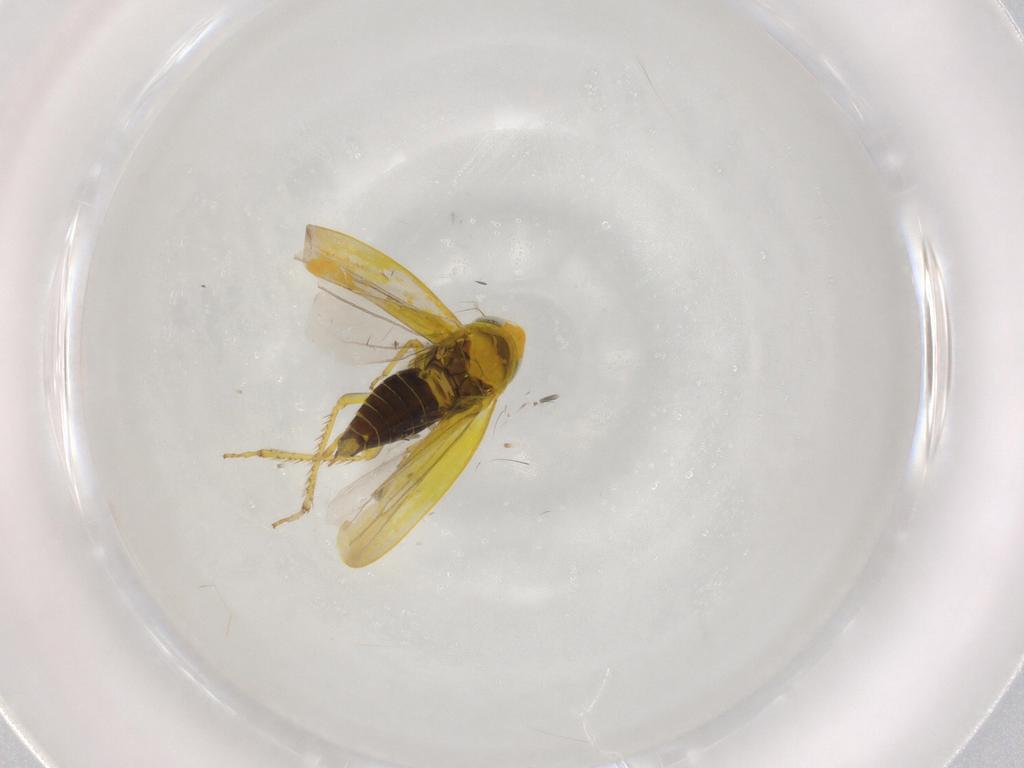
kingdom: Animalia
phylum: Arthropoda
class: Insecta
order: Hemiptera
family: Cicadellidae
